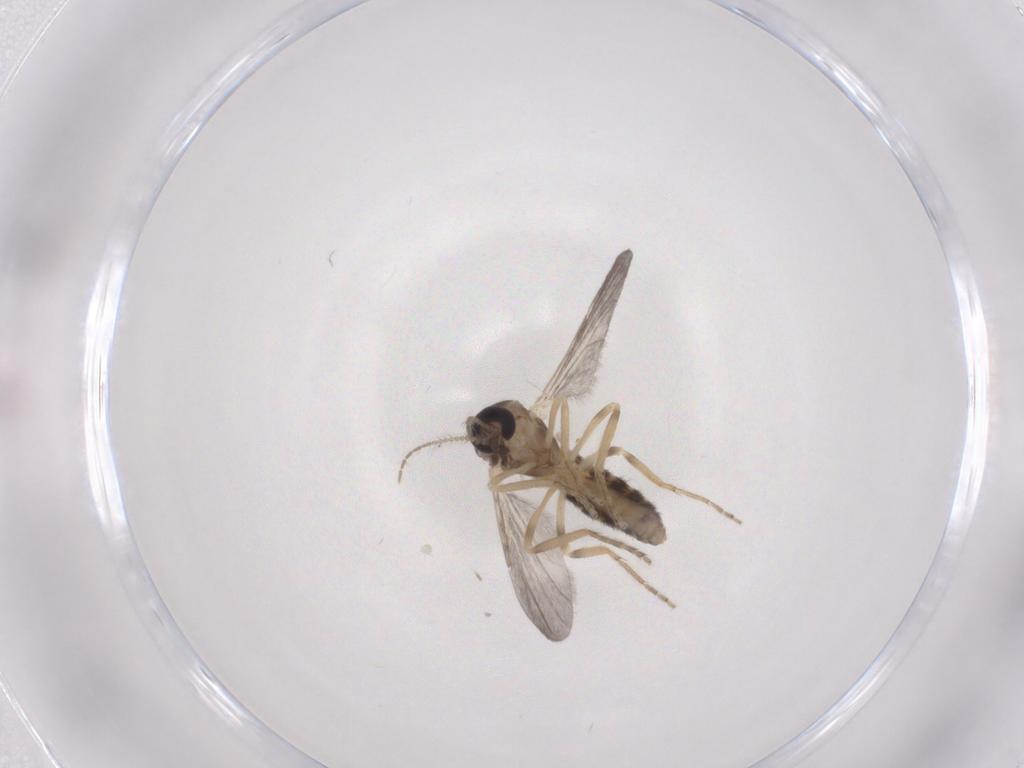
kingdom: Animalia
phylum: Arthropoda
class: Insecta
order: Diptera
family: Ceratopogonidae
